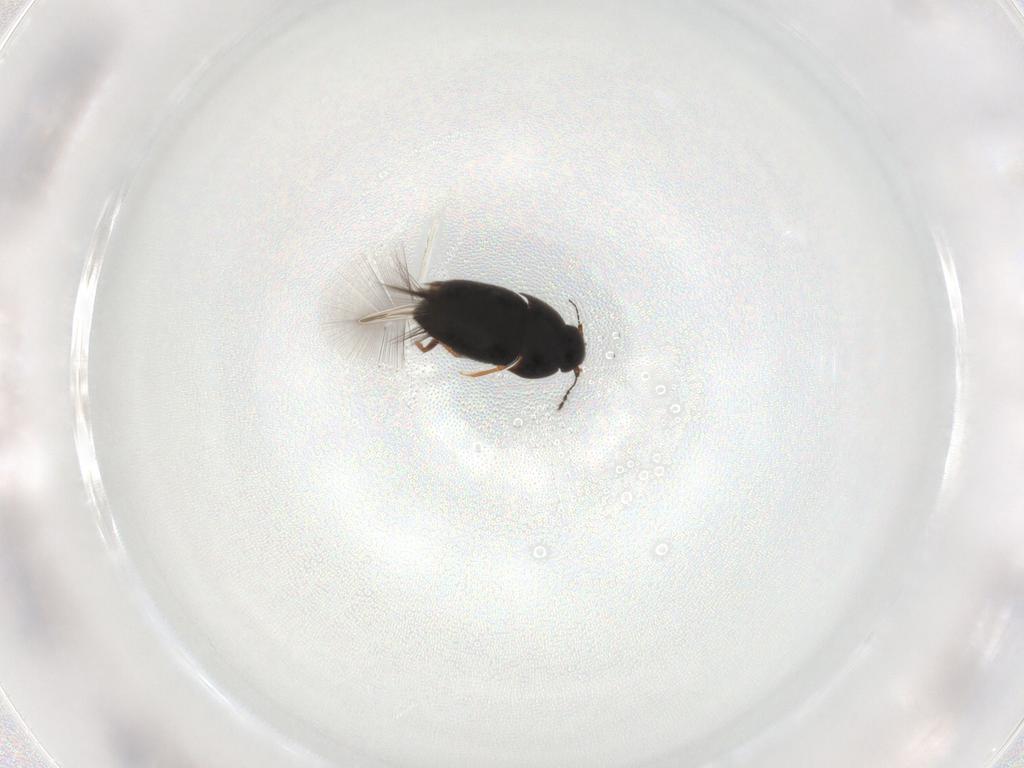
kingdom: Animalia
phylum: Arthropoda
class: Insecta
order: Coleoptera
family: Ptiliidae
